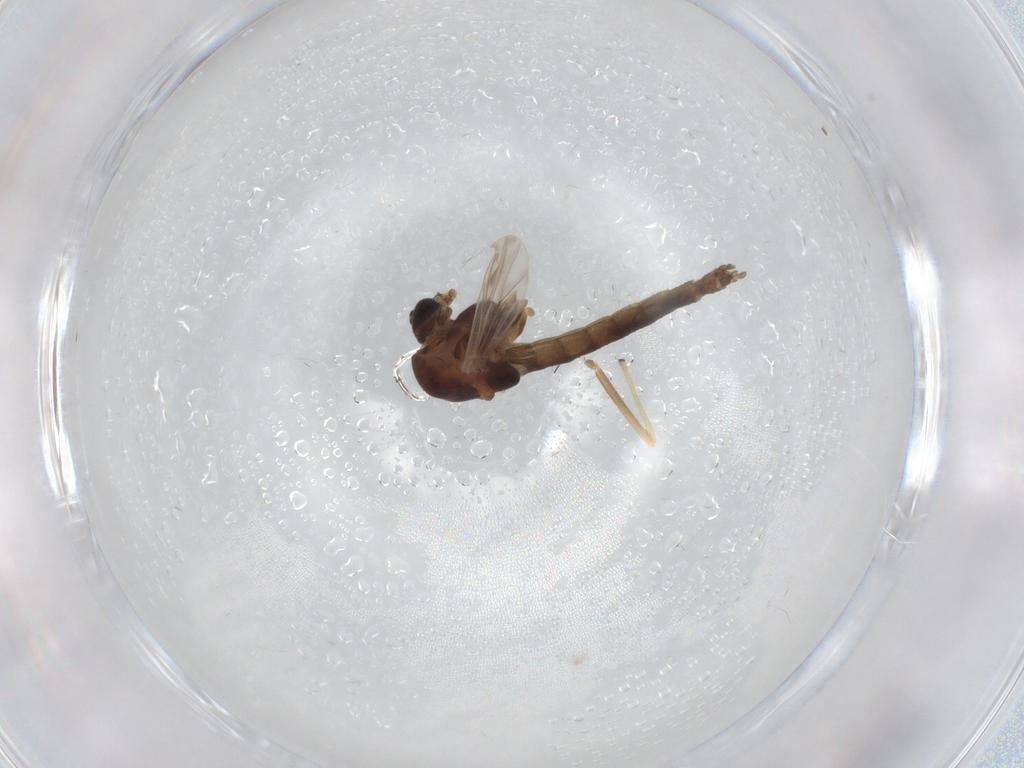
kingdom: Animalia
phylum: Arthropoda
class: Insecta
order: Diptera
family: Chironomidae
